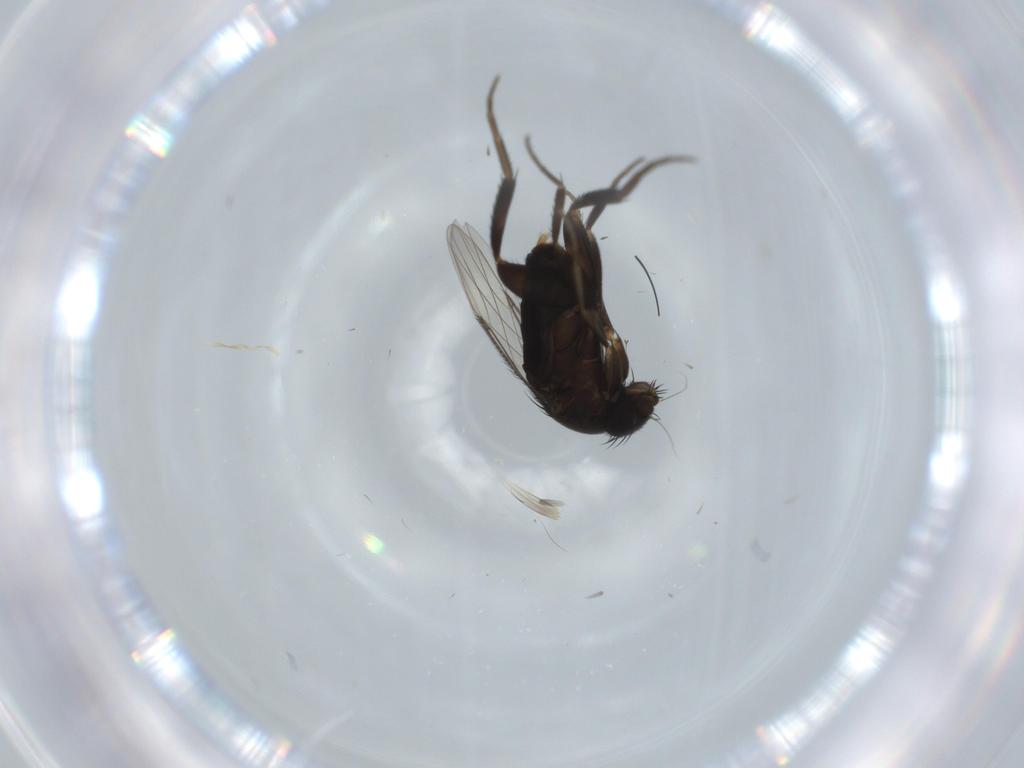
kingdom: Animalia
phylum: Arthropoda
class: Insecta
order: Diptera
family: Phoridae
